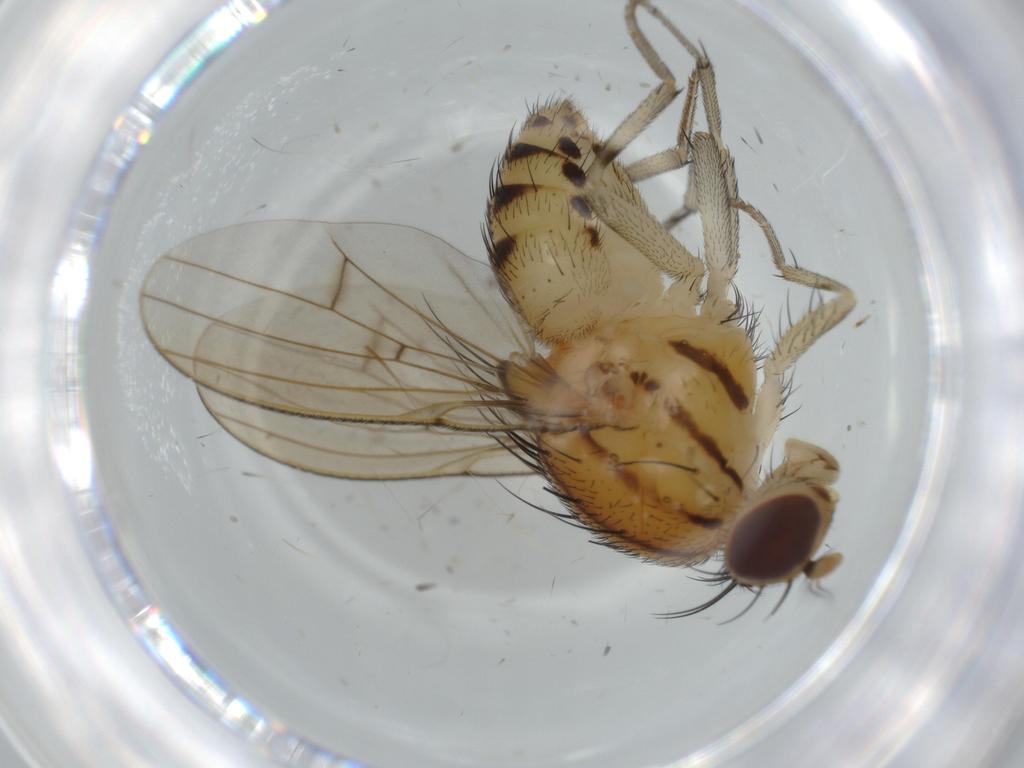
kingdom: Animalia
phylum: Arthropoda
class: Insecta
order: Diptera
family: Lauxaniidae
